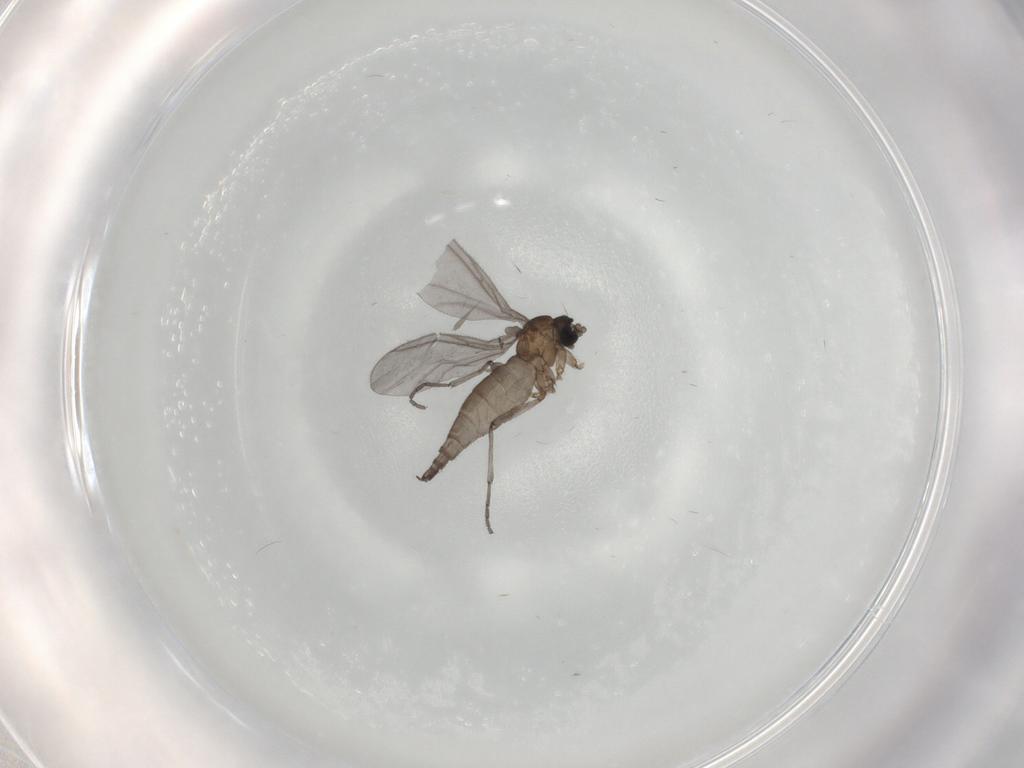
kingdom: Animalia
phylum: Arthropoda
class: Insecta
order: Diptera
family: Sciaridae
